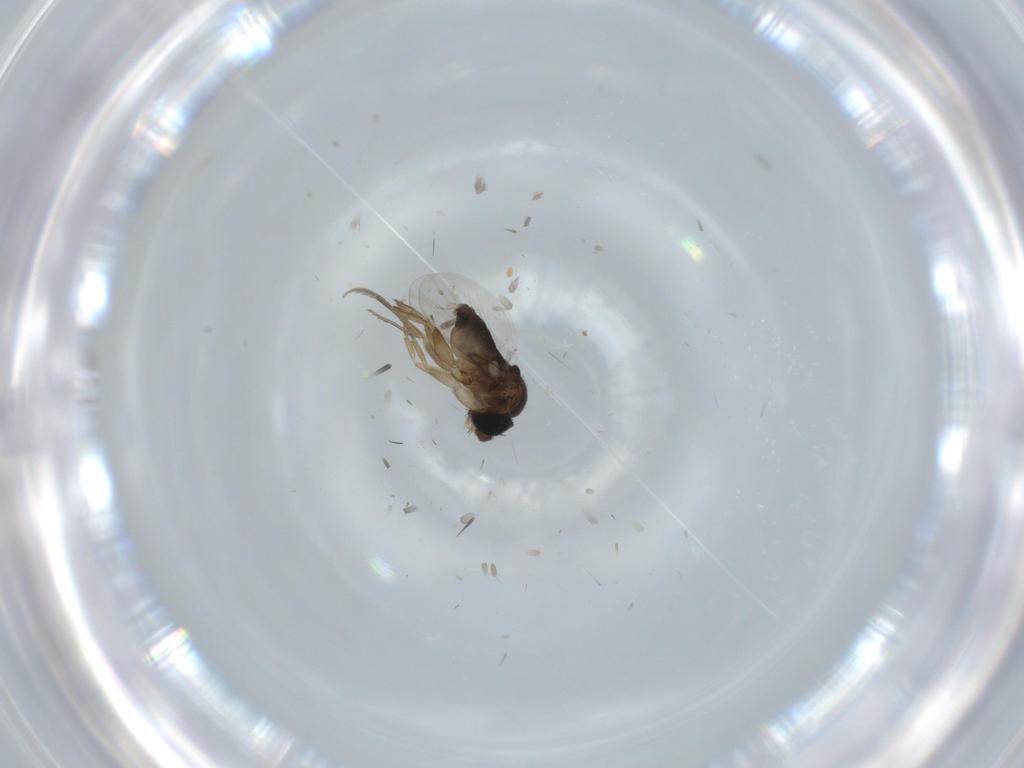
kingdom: Animalia
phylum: Arthropoda
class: Insecta
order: Diptera
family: Phoridae
